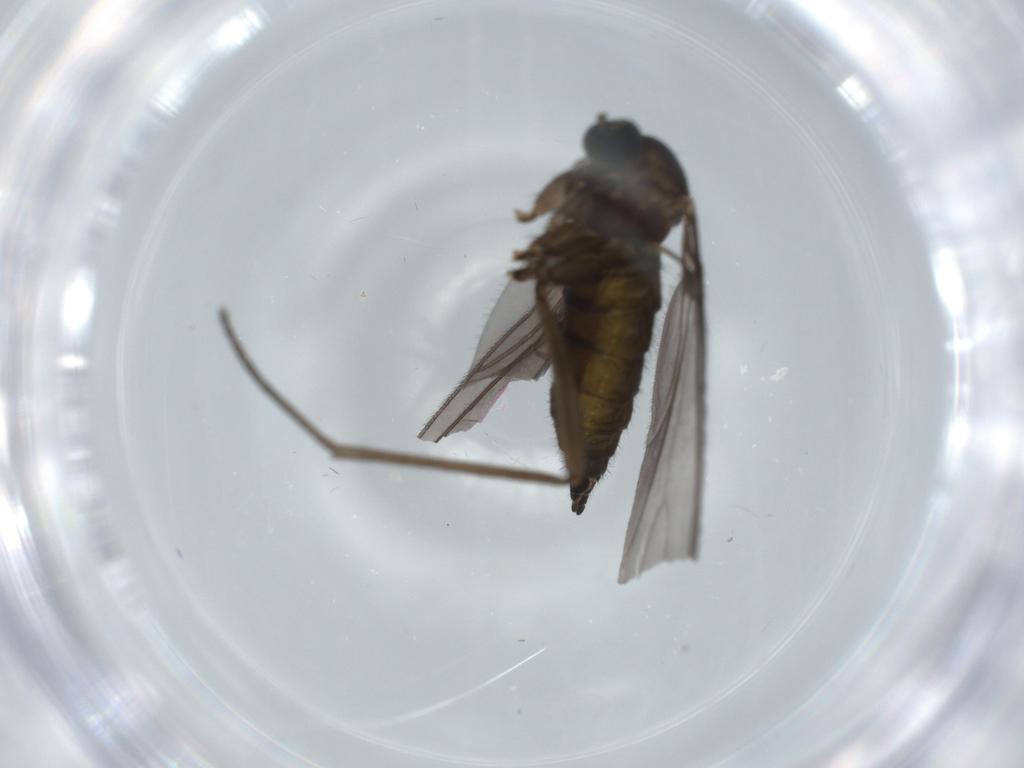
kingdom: Animalia
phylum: Arthropoda
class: Insecta
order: Diptera
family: Sciaridae
